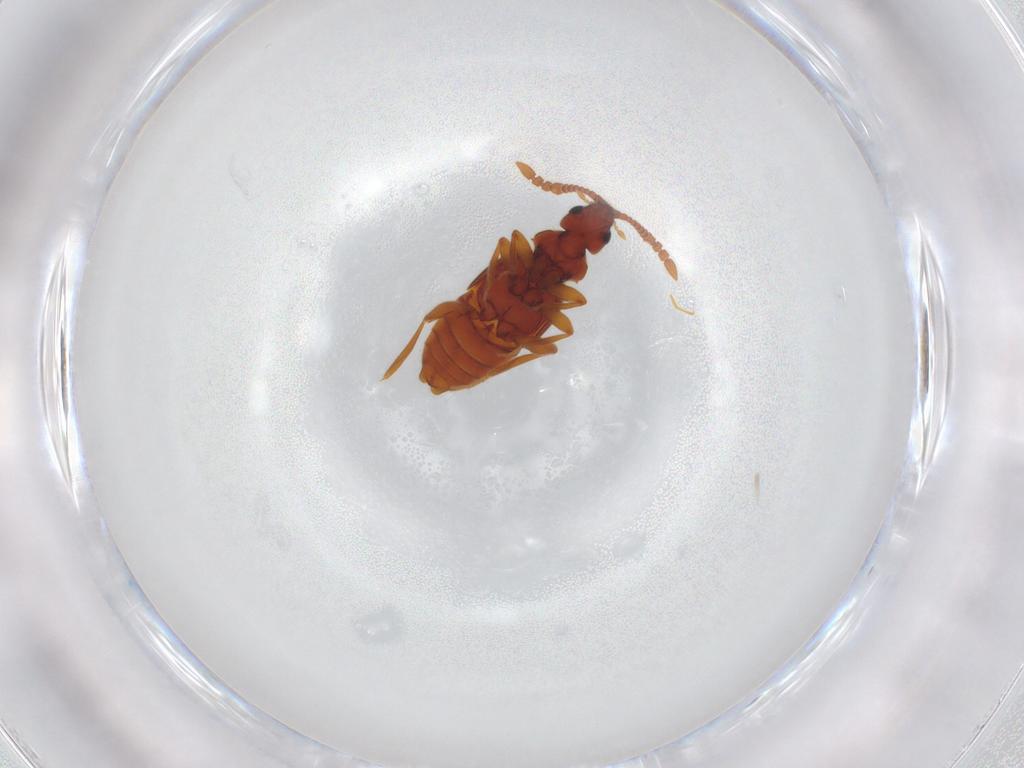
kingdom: Animalia
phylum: Arthropoda
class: Insecta
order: Coleoptera
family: Staphylinidae
